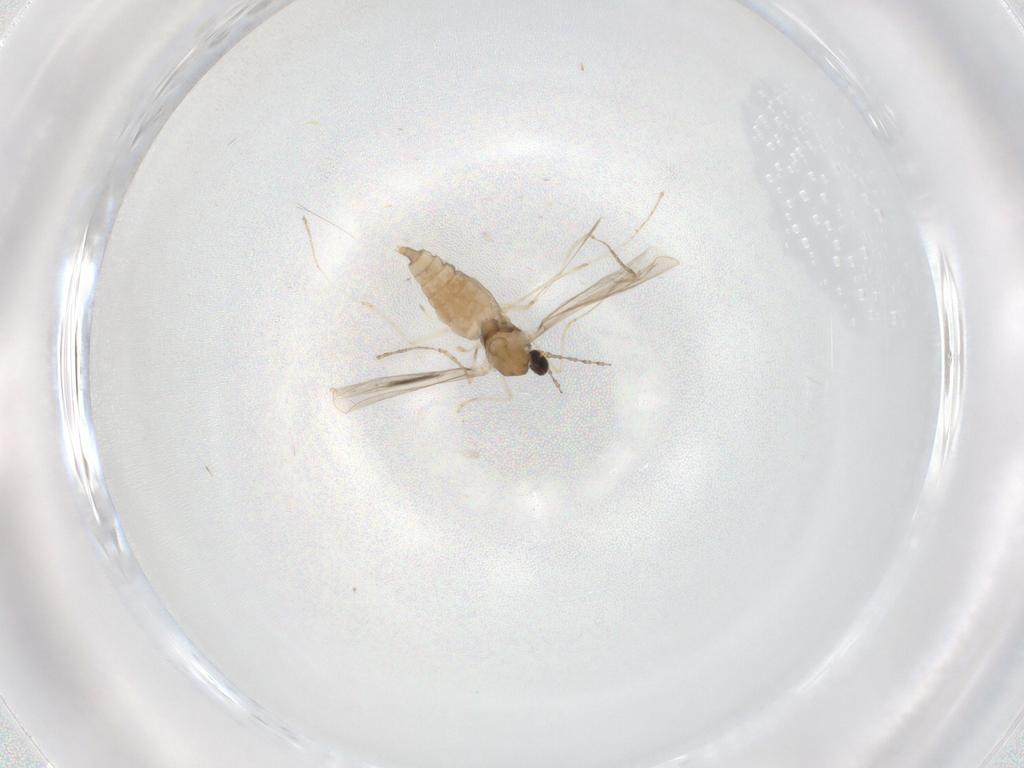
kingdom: Animalia
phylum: Arthropoda
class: Insecta
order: Diptera
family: Cecidomyiidae
